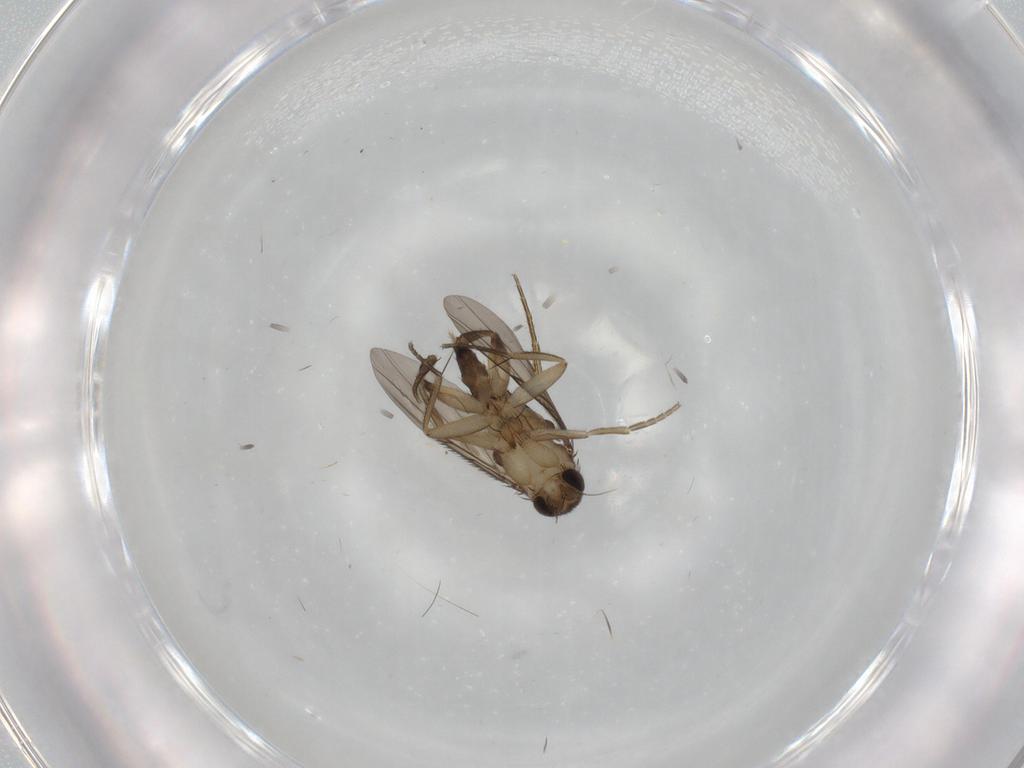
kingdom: Animalia
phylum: Arthropoda
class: Insecta
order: Diptera
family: Phoridae
